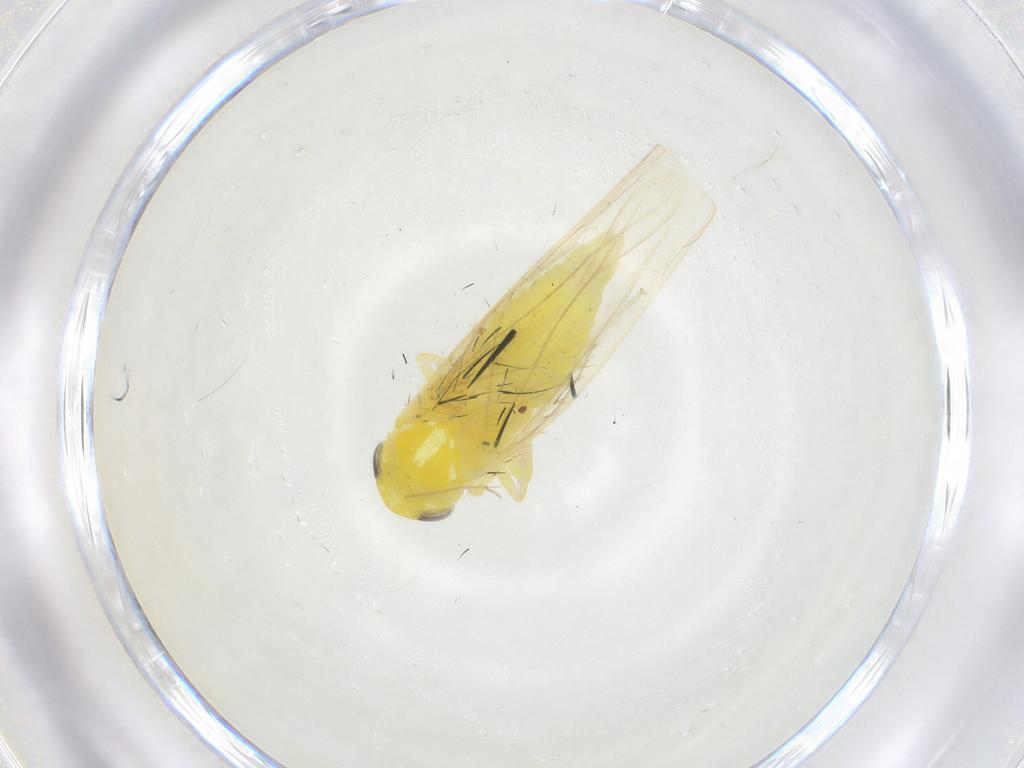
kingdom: Animalia
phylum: Arthropoda
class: Insecta
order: Hemiptera
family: Cicadellidae
